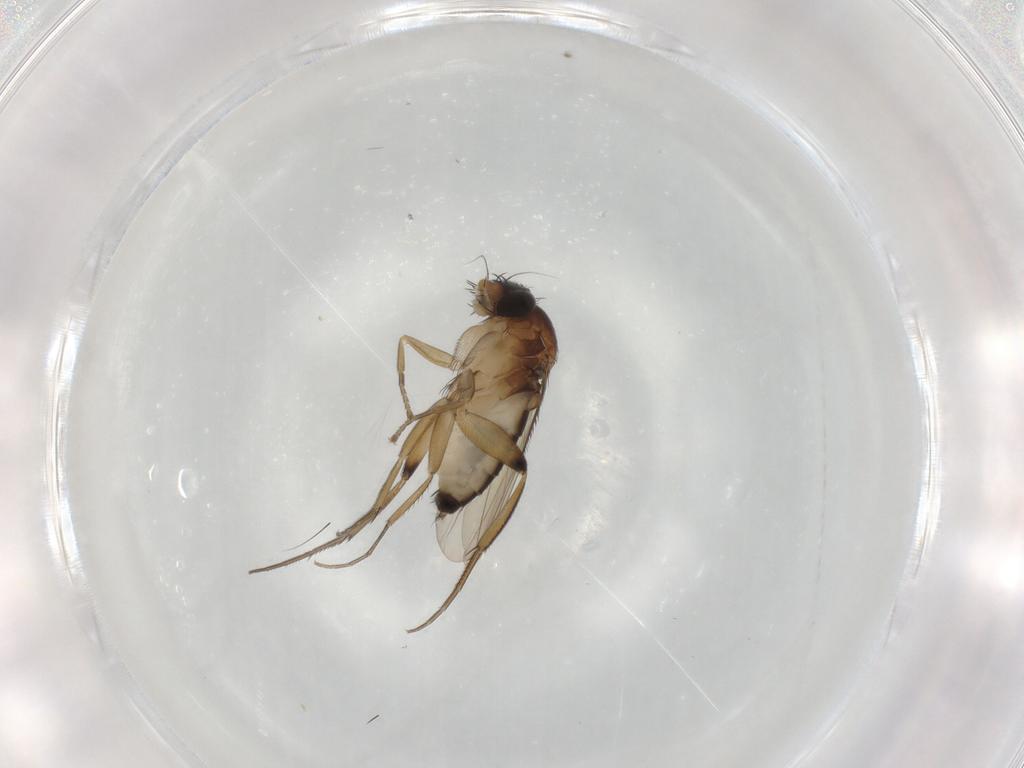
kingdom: Animalia
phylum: Arthropoda
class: Insecta
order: Diptera
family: Phoridae
